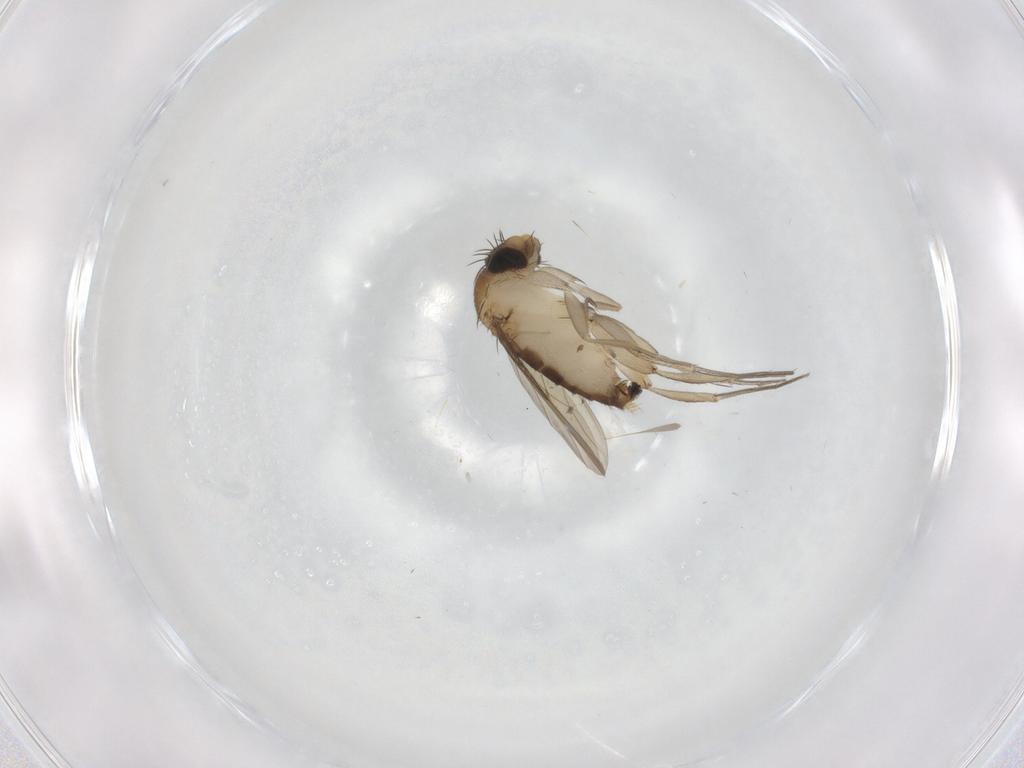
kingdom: Animalia
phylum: Arthropoda
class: Insecta
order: Diptera
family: Phoridae
